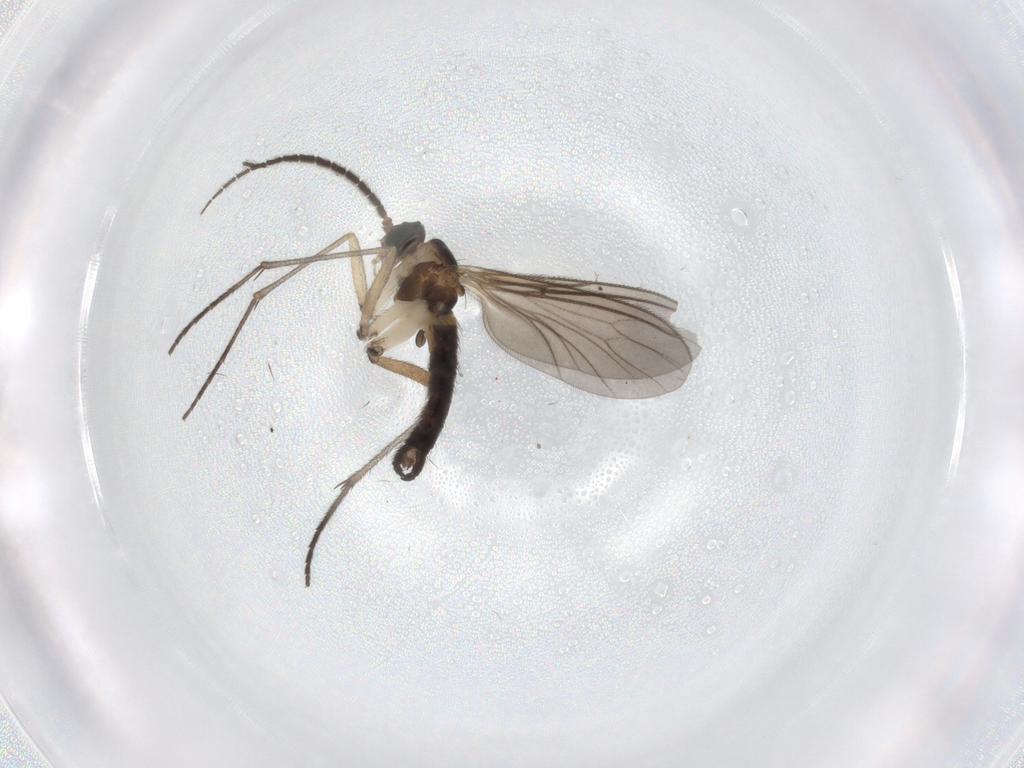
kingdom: Animalia
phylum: Arthropoda
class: Insecta
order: Diptera
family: Sciaridae
